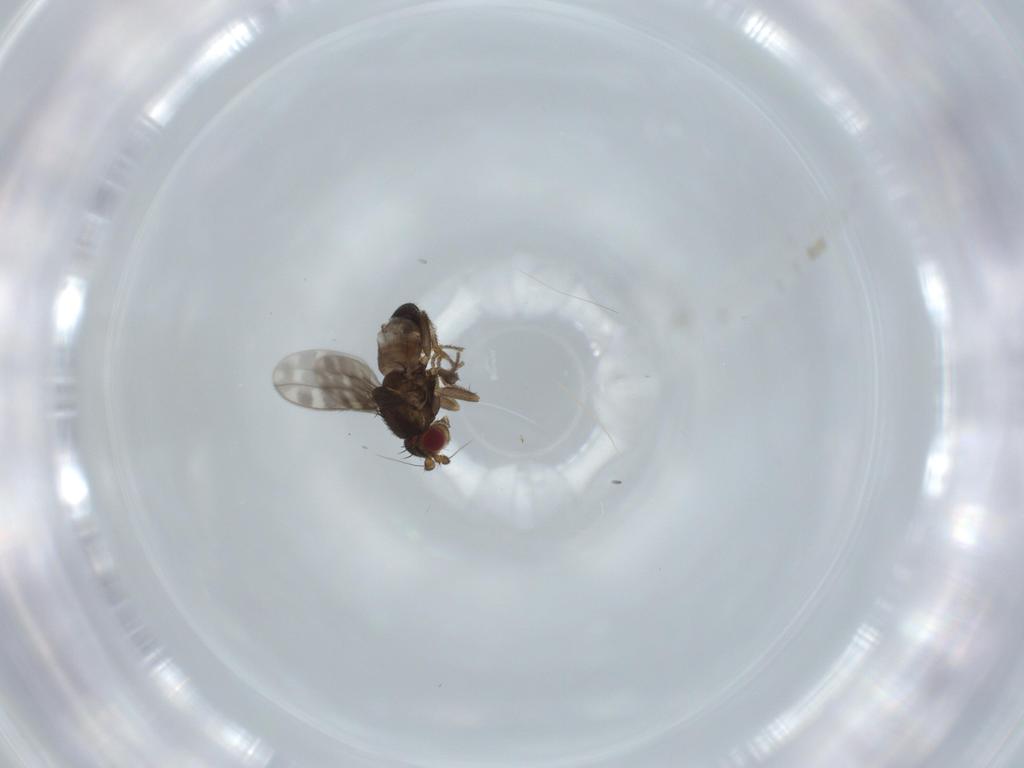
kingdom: Animalia
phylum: Arthropoda
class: Insecta
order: Diptera
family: Sphaeroceridae
